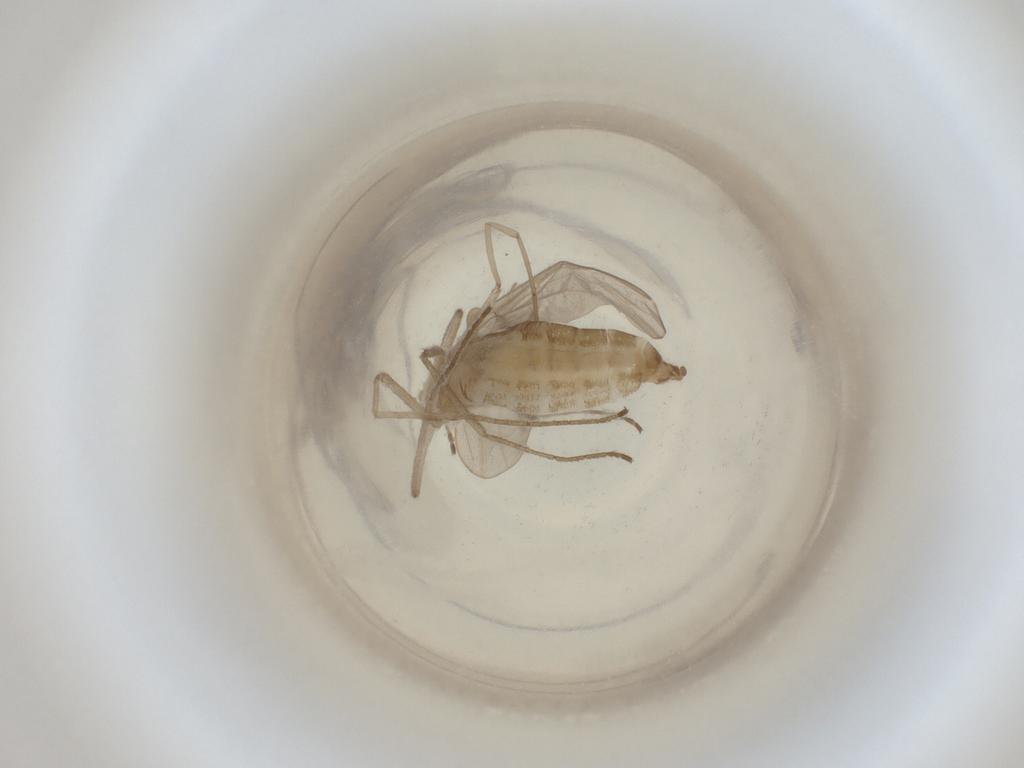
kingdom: Animalia
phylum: Arthropoda
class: Insecta
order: Diptera
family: Cecidomyiidae
